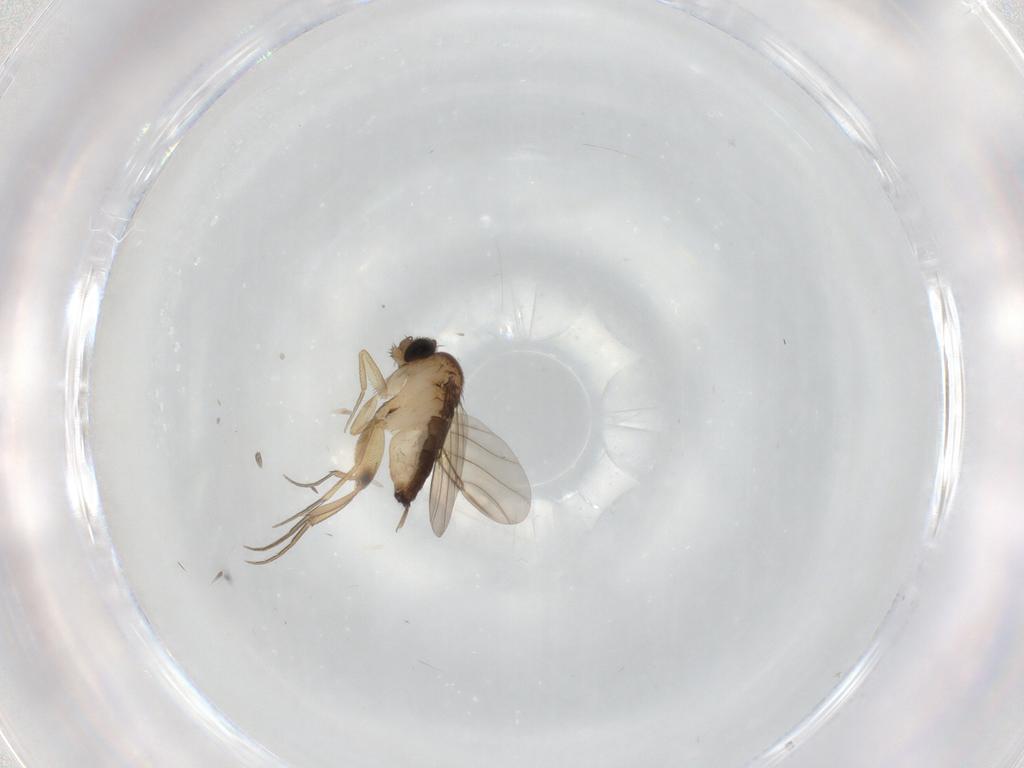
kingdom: Animalia
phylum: Arthropoda
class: Insecta
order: Diptera
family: Phoridae
